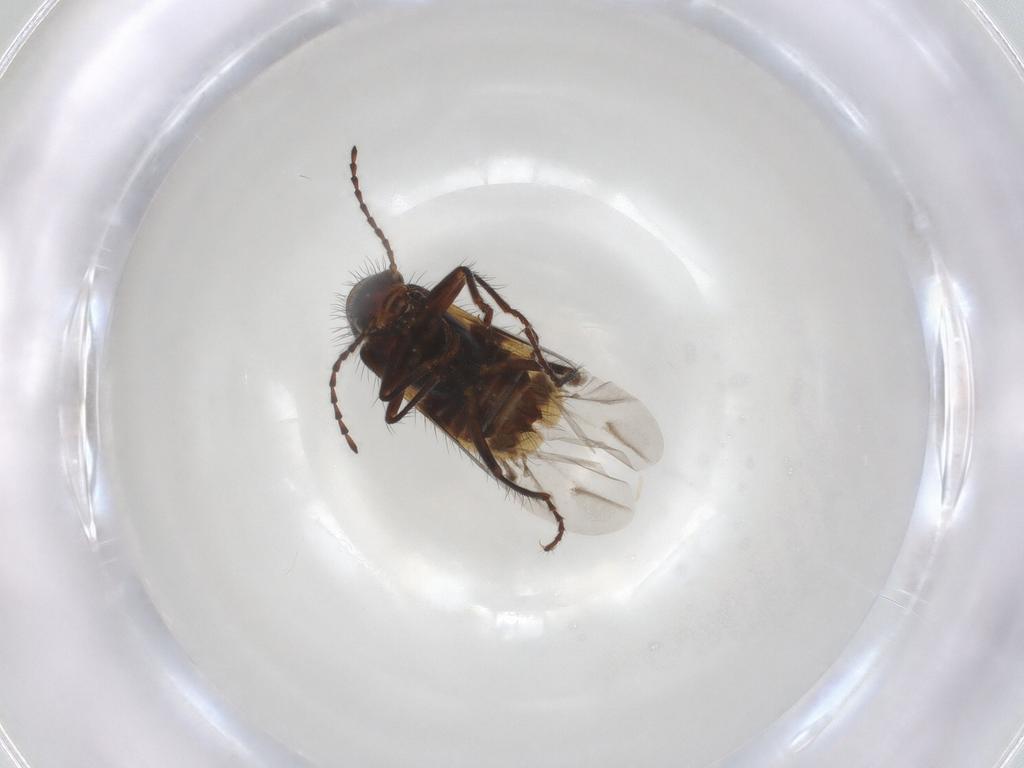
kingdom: Animalia
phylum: Arthropoda
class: Insecta
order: Coleoptera
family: Melyridae
